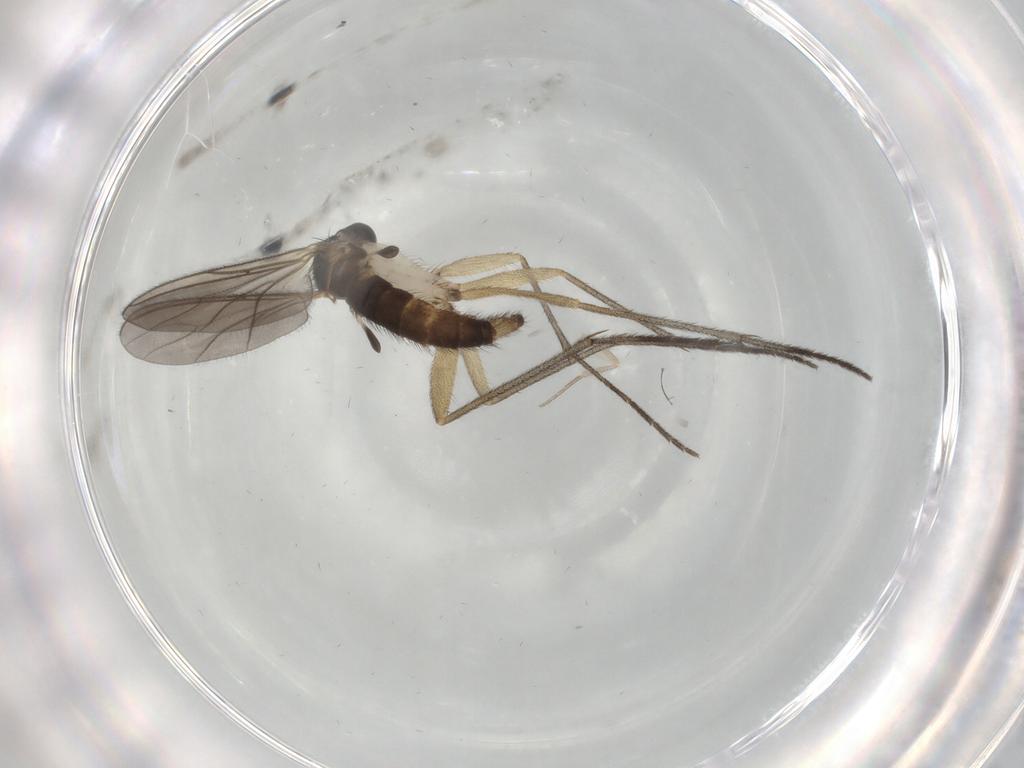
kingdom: Animalia
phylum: Arthropoda
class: Insecta
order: Diptera
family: Sciaridae
